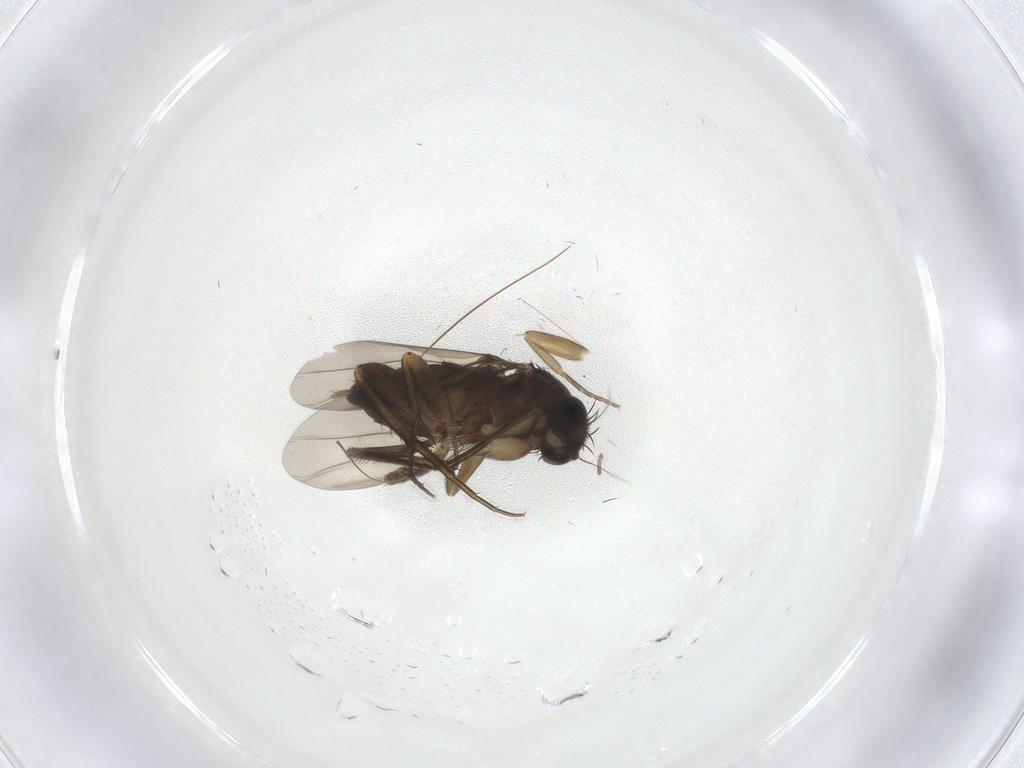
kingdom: Animalia
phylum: Arthropoda
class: Insecta
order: Diptera
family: Phoridae
